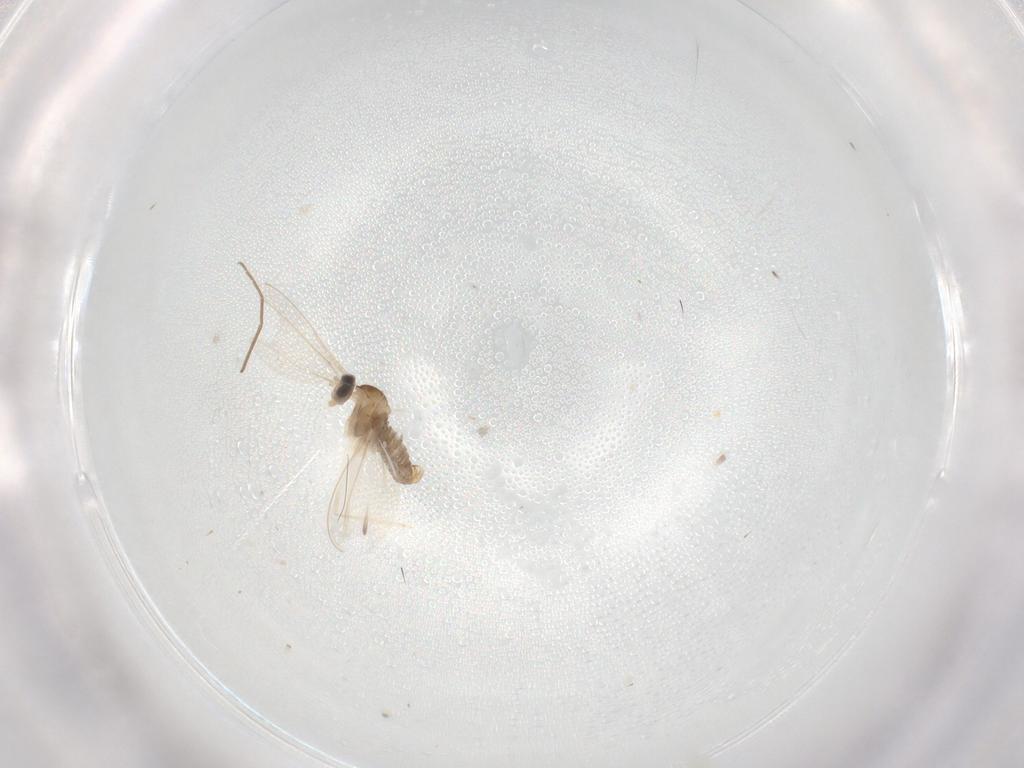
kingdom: Animalia
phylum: Arthropoda
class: Insecta
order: Diptera
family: Cecidomyiidae
